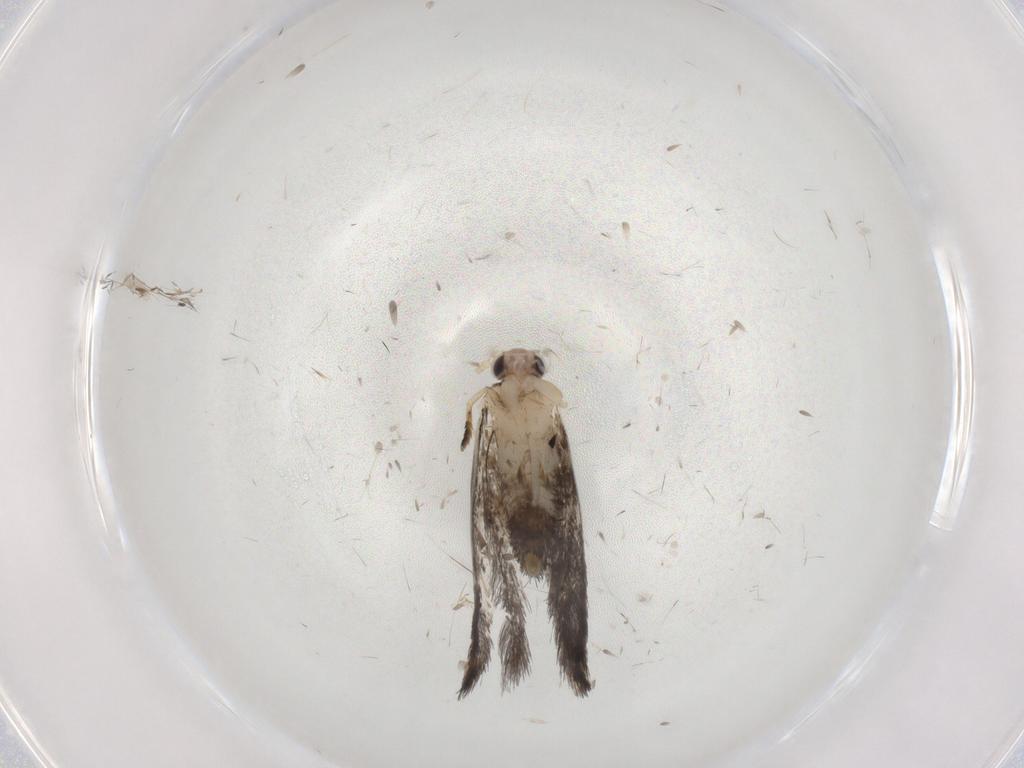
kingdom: Animalia
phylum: Arthropoda
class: Insecta
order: Lepidoptera
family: Tineidae
